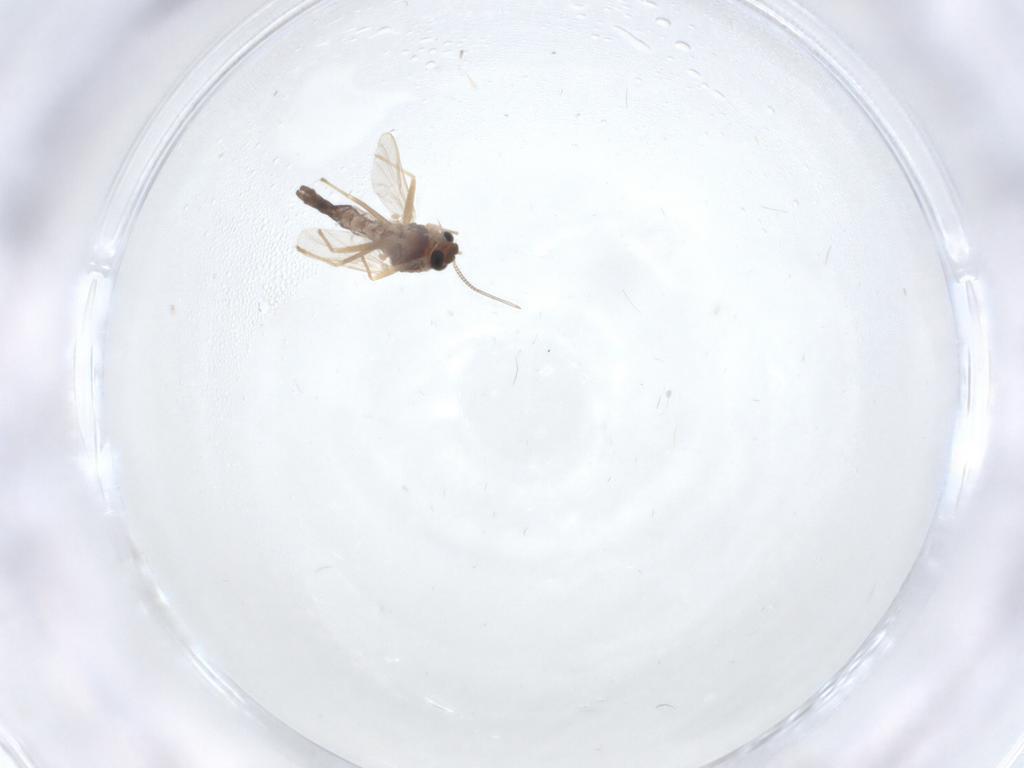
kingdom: Animalia
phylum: Arthropoda
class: Insecta
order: Diptera
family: Chironomidae
